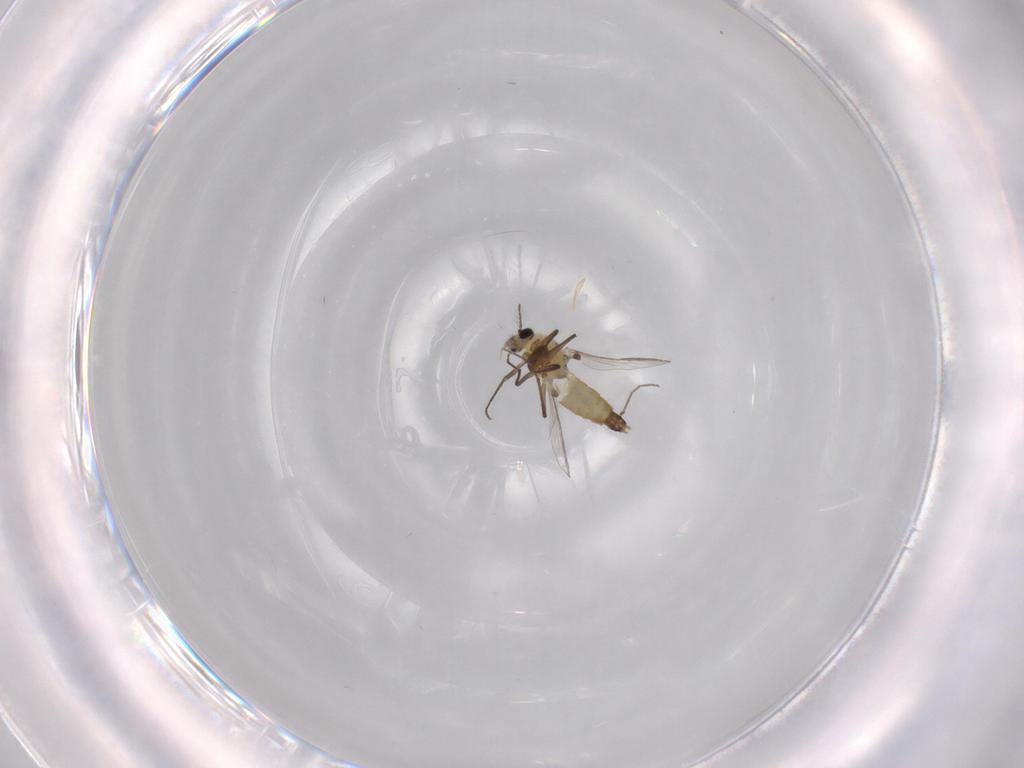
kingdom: Animalia
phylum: Arthropoda
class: Insecta
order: Diptera
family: Chironomidae
